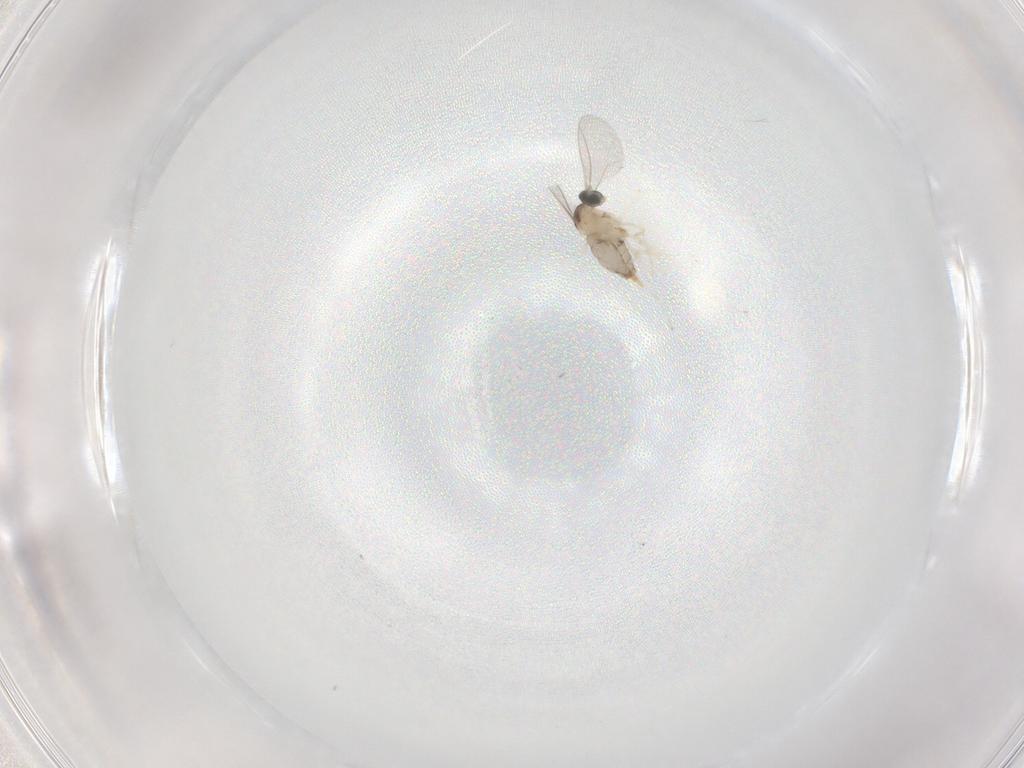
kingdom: Animalia
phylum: Arthropoda
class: Insecta
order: Diptera
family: Cecidomyiidae
